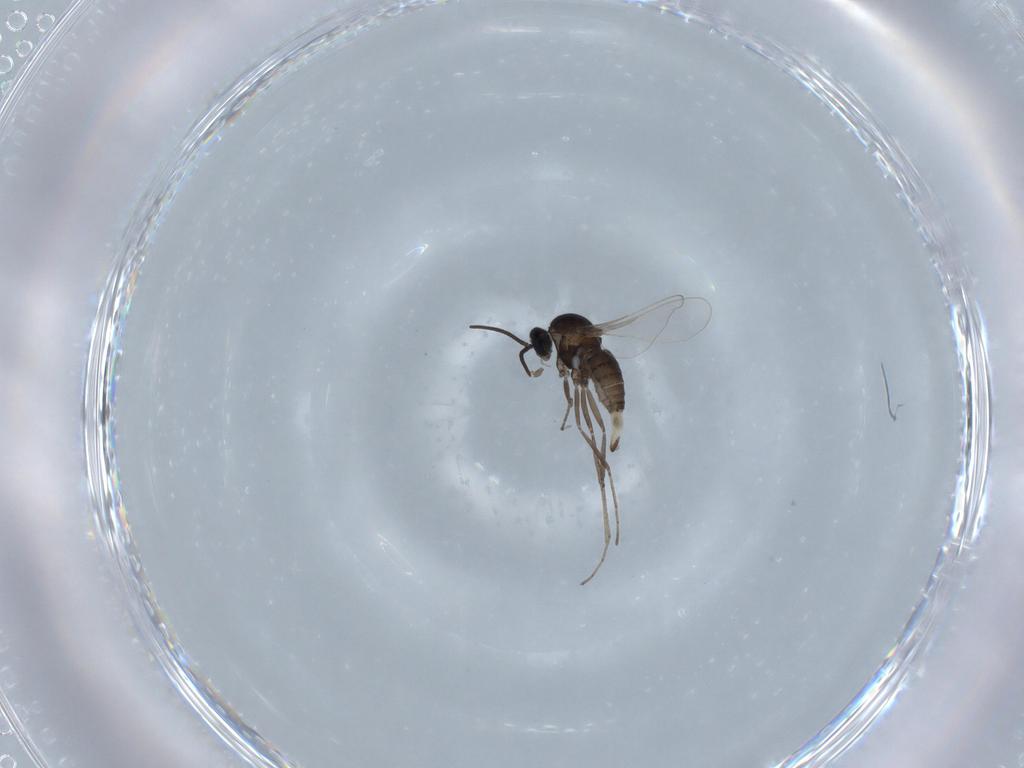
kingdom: Animalia
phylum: Arthropoda
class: Insecta
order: Diptera
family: Cecidomyiidae
